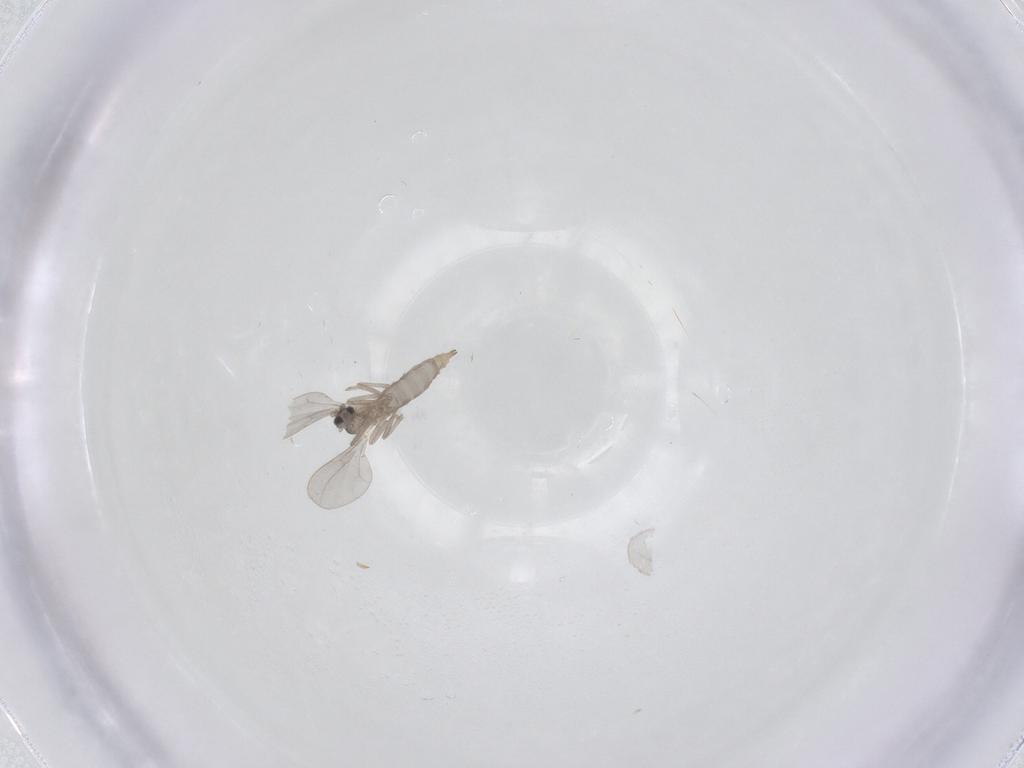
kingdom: Animalia
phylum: Arthropoda
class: Insecta
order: Diptera
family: Cecidomyiidae
